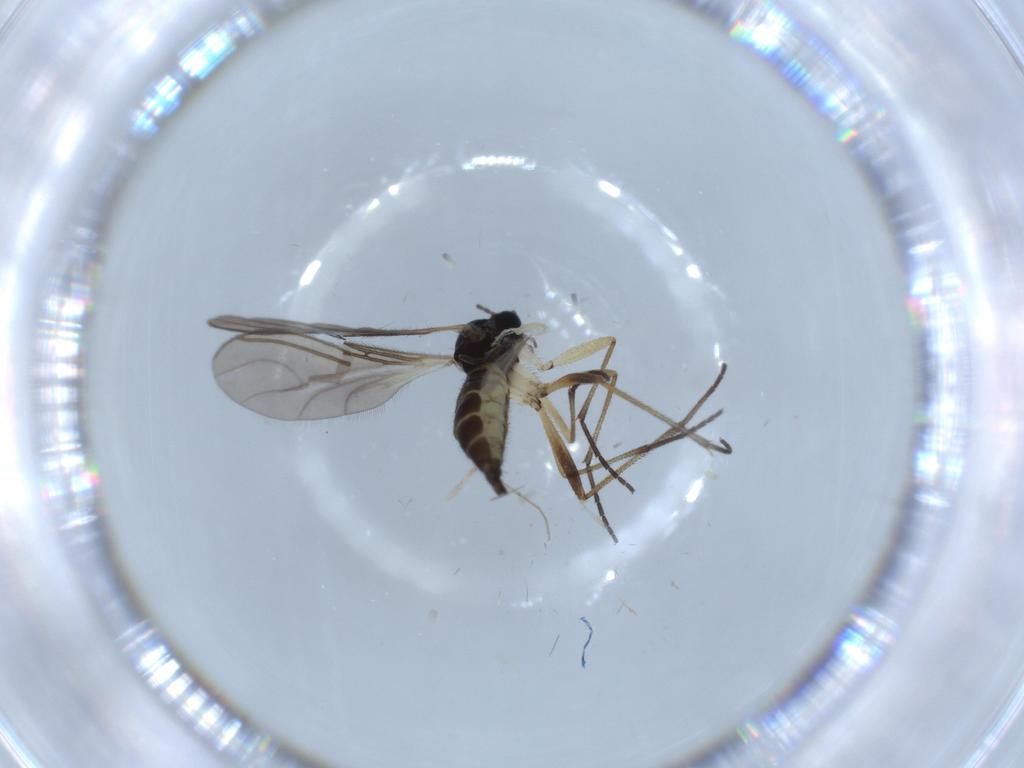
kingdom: Animalia
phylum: Arthropoda
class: Insecta
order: Diptera
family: Sciaridae
